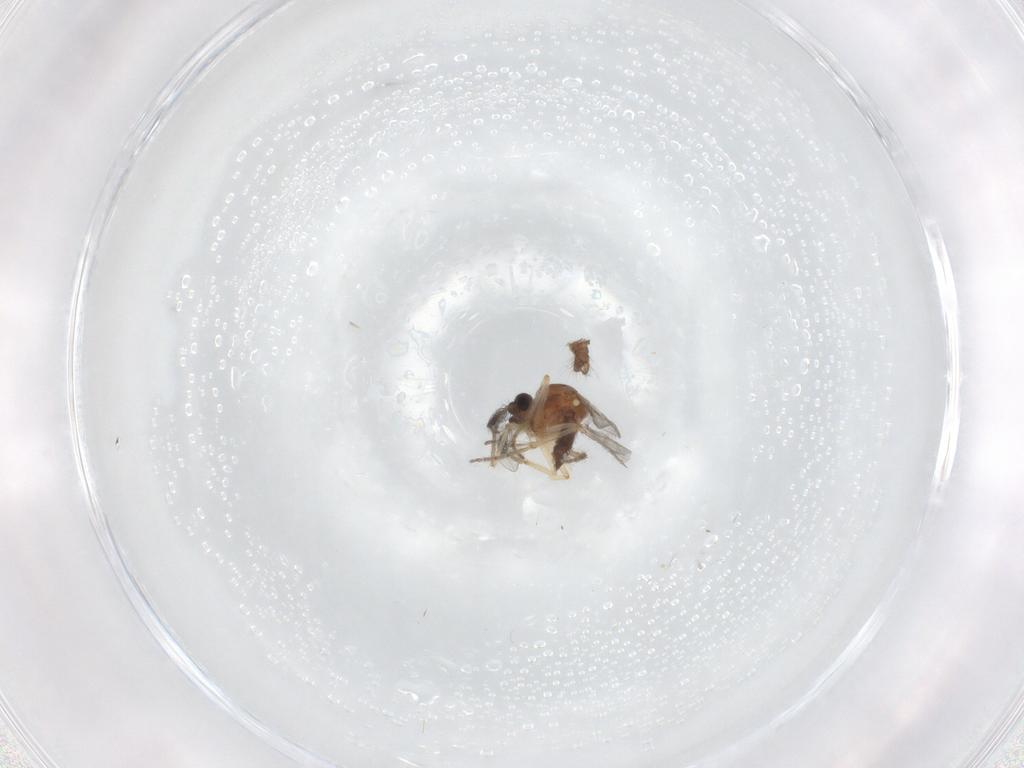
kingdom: Animalia
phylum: Arthropoda
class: Insecta
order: Diptera
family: Ceratopogonidae
